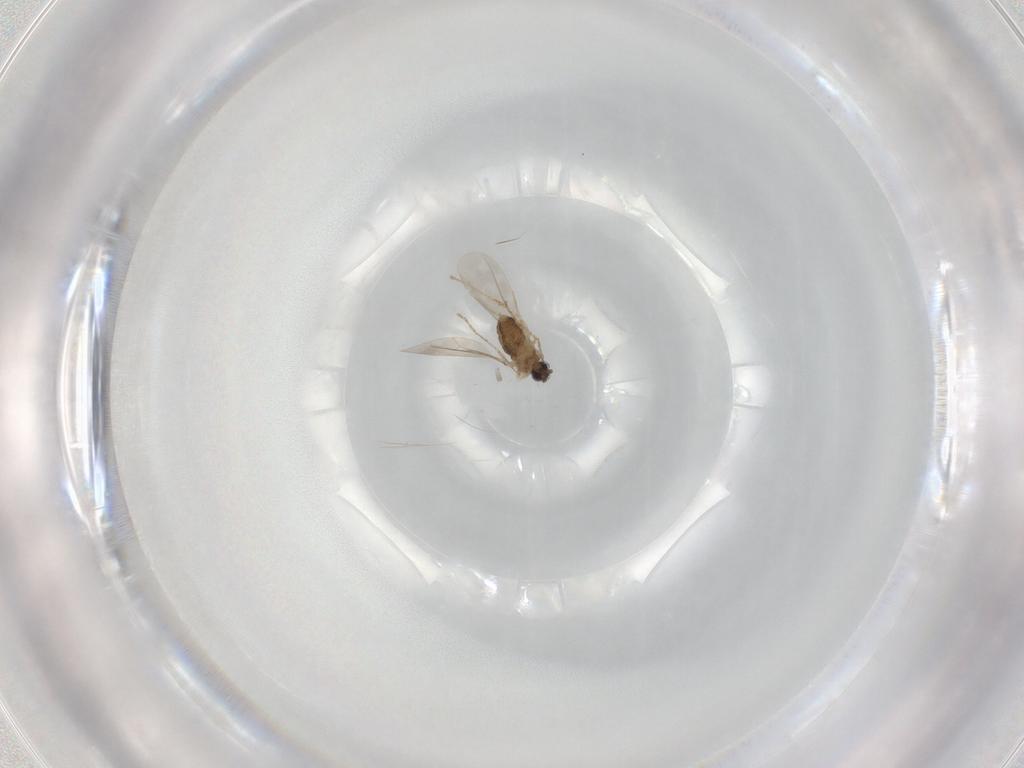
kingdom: Animalia
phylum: Arthropoda
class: Insecta
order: Diptera
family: Cecidomyiidae
